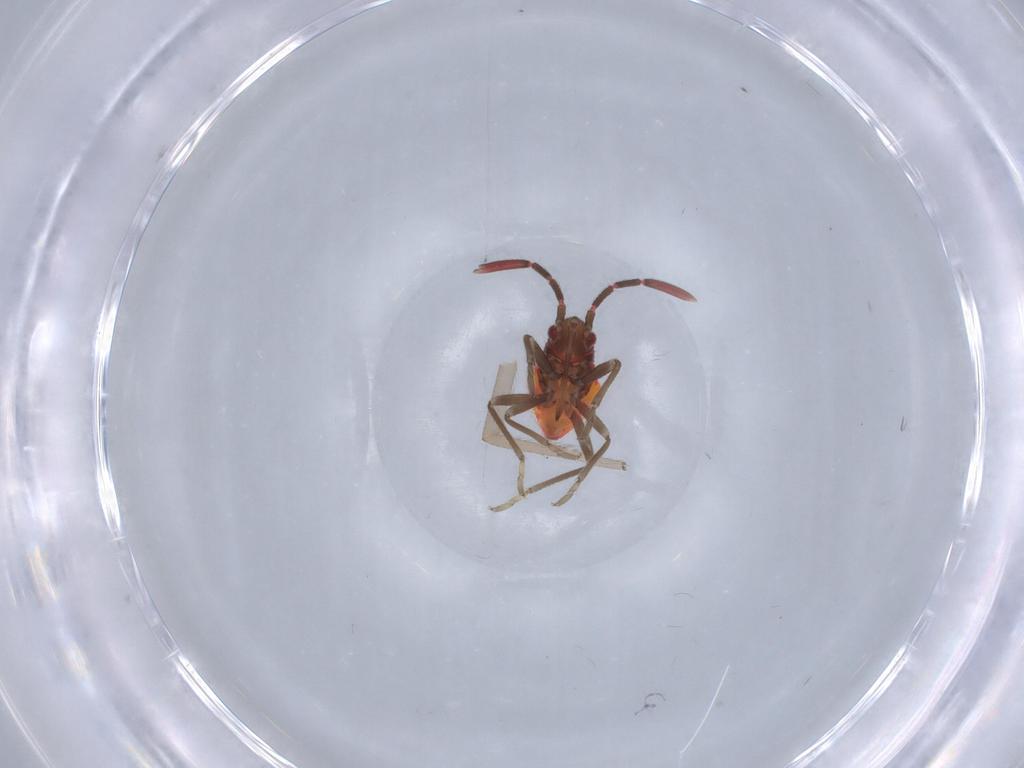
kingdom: Animalia
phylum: Arthropoda
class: Insecta
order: Hemiptera
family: Rhyparochromidae
